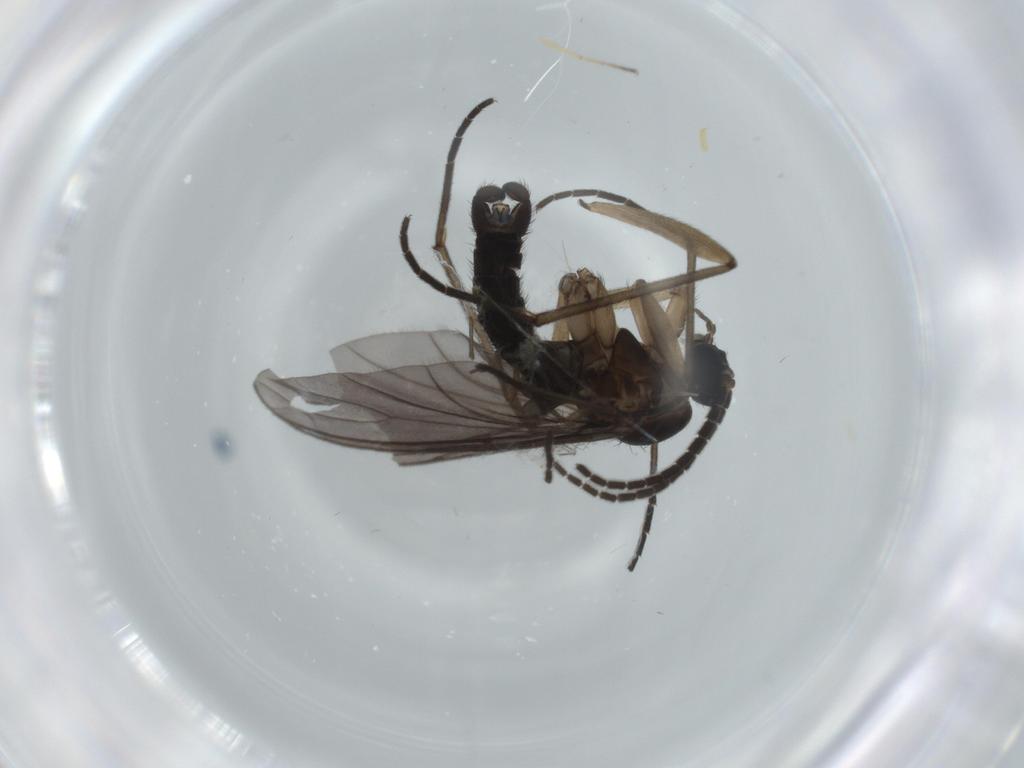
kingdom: Animalia
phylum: Arthropoda
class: Insecta
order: Diptera
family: Sciaridae
